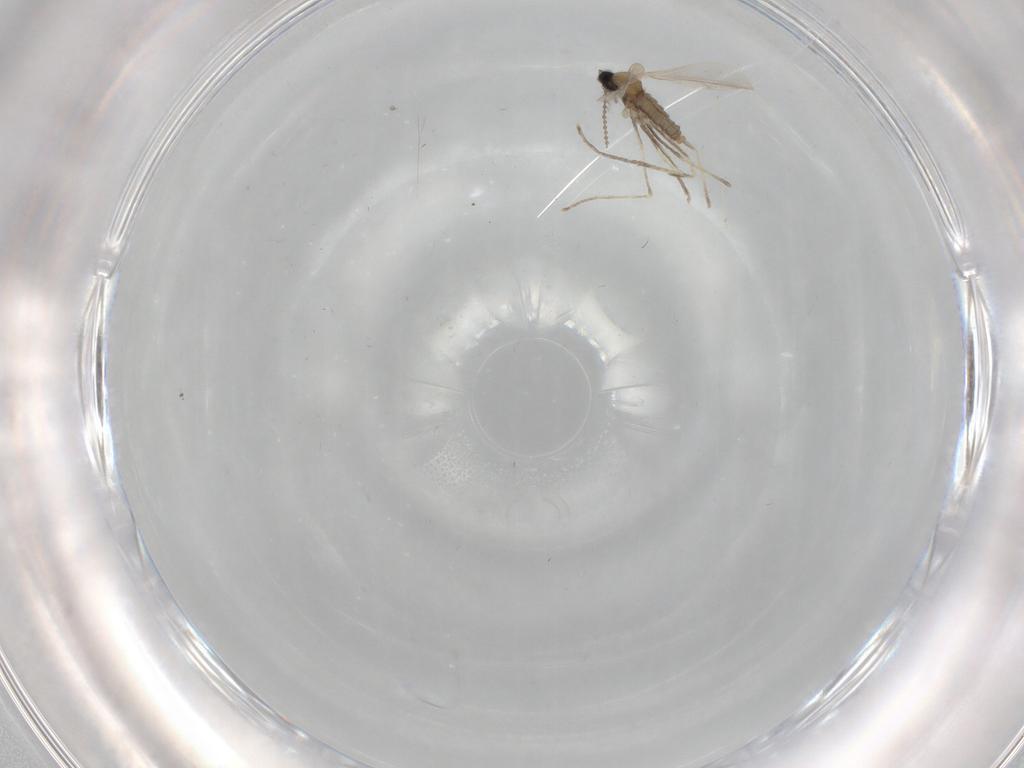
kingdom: Animalia
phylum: Arthropoda
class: Insecta
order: Diptera
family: Cecidomyiidae
